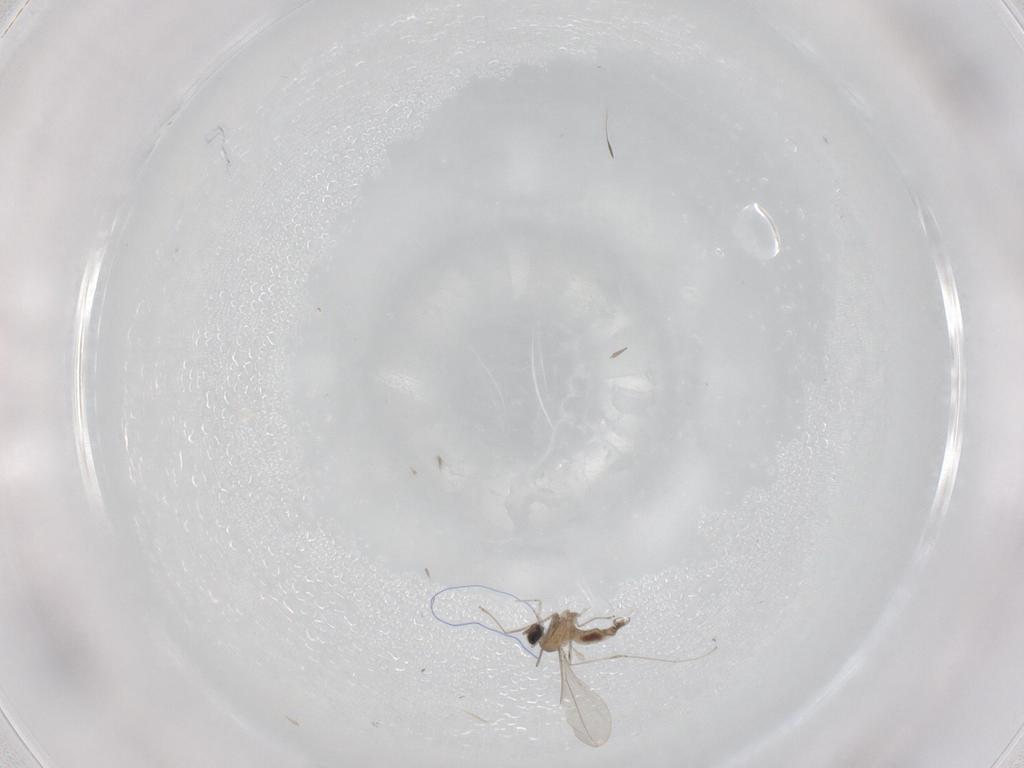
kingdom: Animalia
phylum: Arthropoda
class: Insecta
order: Diptera
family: Cecidomyiidae
